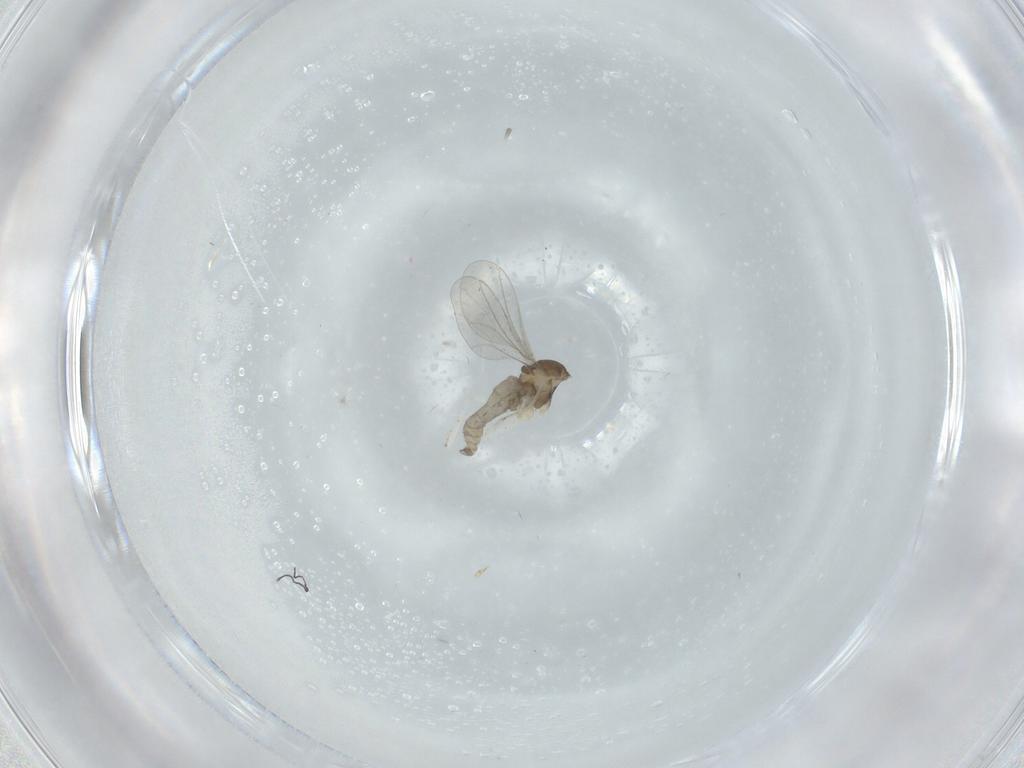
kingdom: Animalia
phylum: Arthropoda
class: Insecta
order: Diptera
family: Cecidomyiidae
